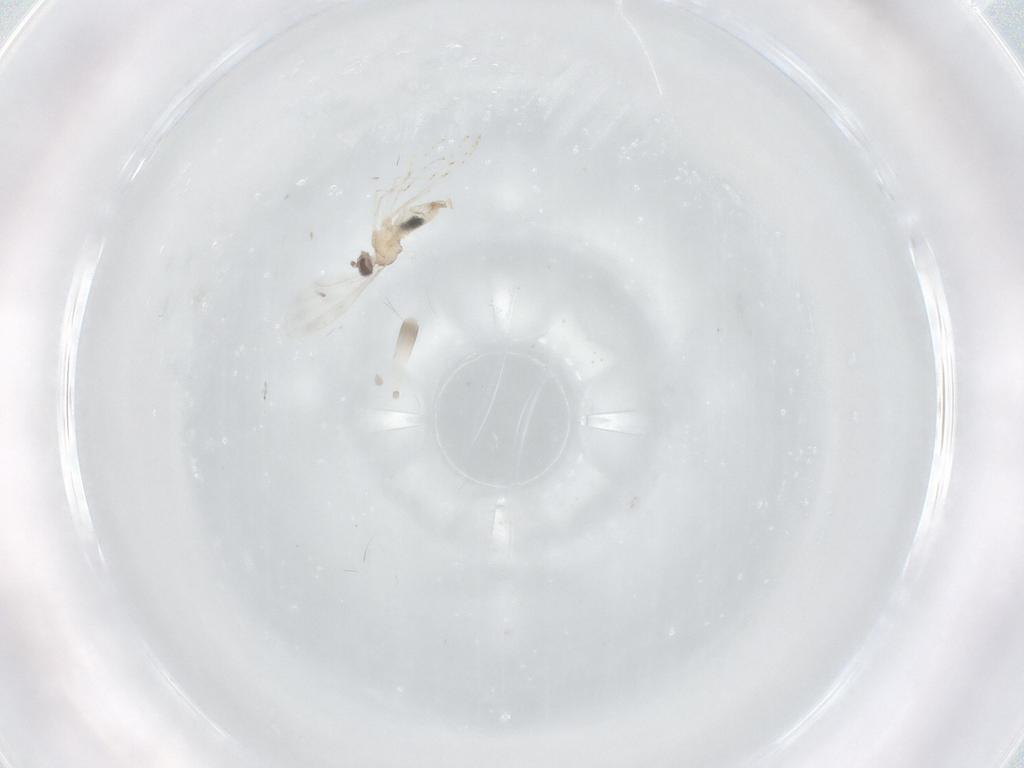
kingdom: Animalia
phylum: Arthropoda
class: Insecta
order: Diptera
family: Cecidomyiidae
